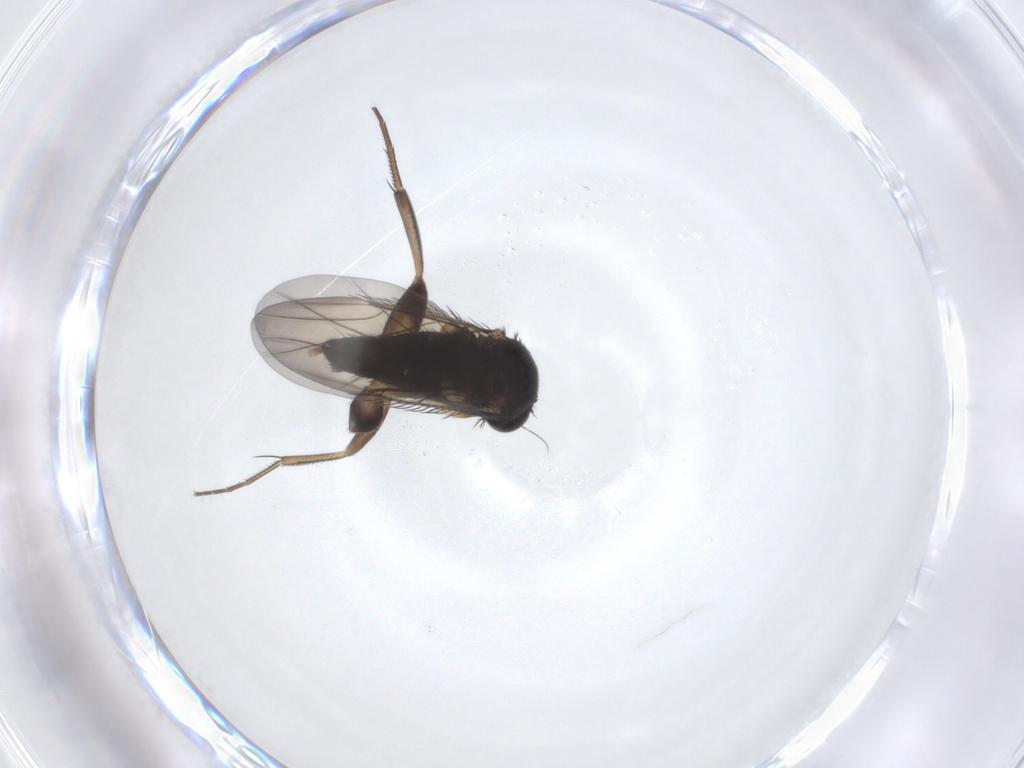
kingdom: Animalia
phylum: Arthropoda
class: Insecta
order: Diptera
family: Phoridae
